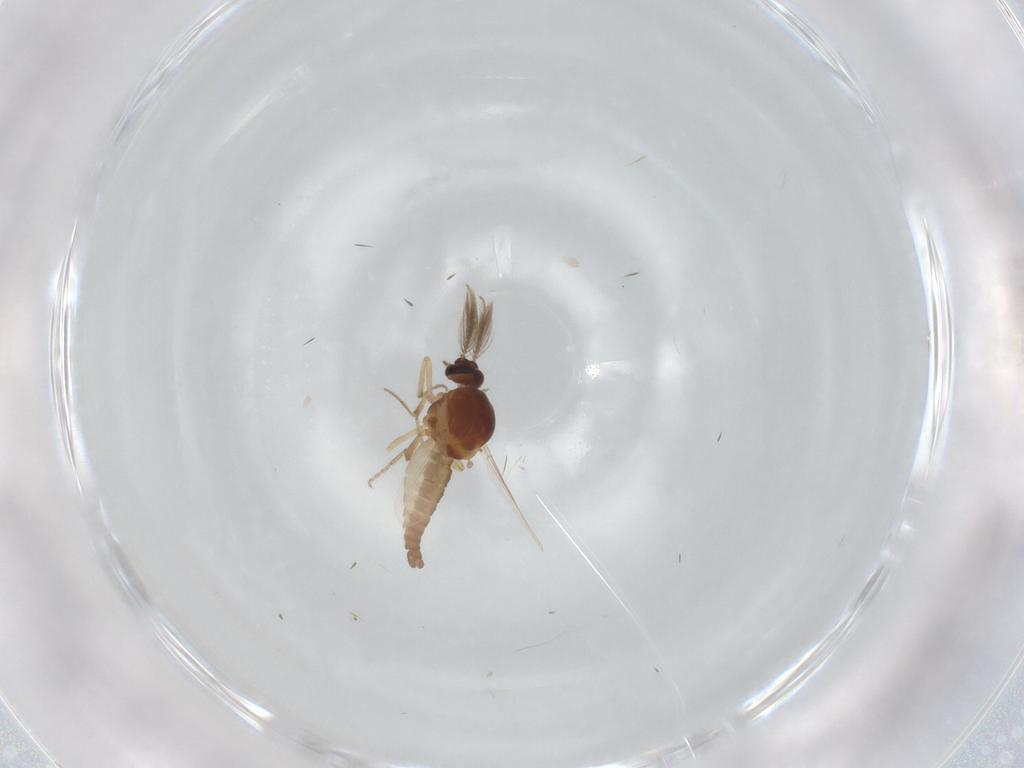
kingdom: Animalia
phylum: Arthropoda
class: Insecta
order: Diptera
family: Ceratopogonidae
